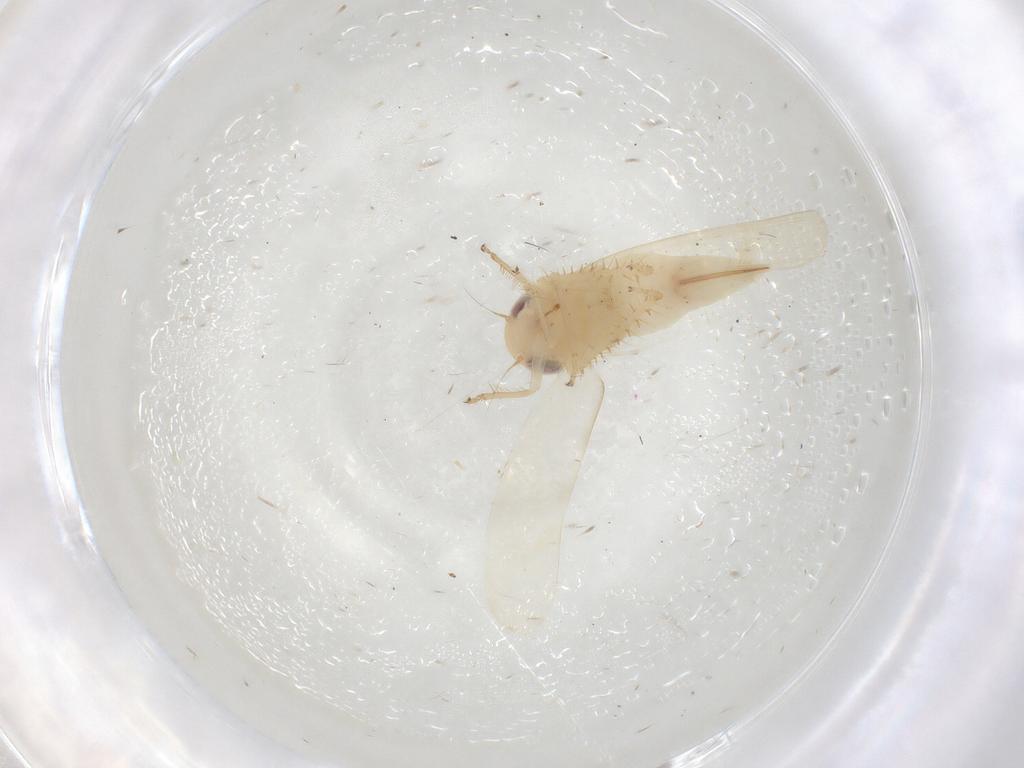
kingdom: Animalia
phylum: Arthropoda
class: Insecta
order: Hemiptera
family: Cicadellidae
